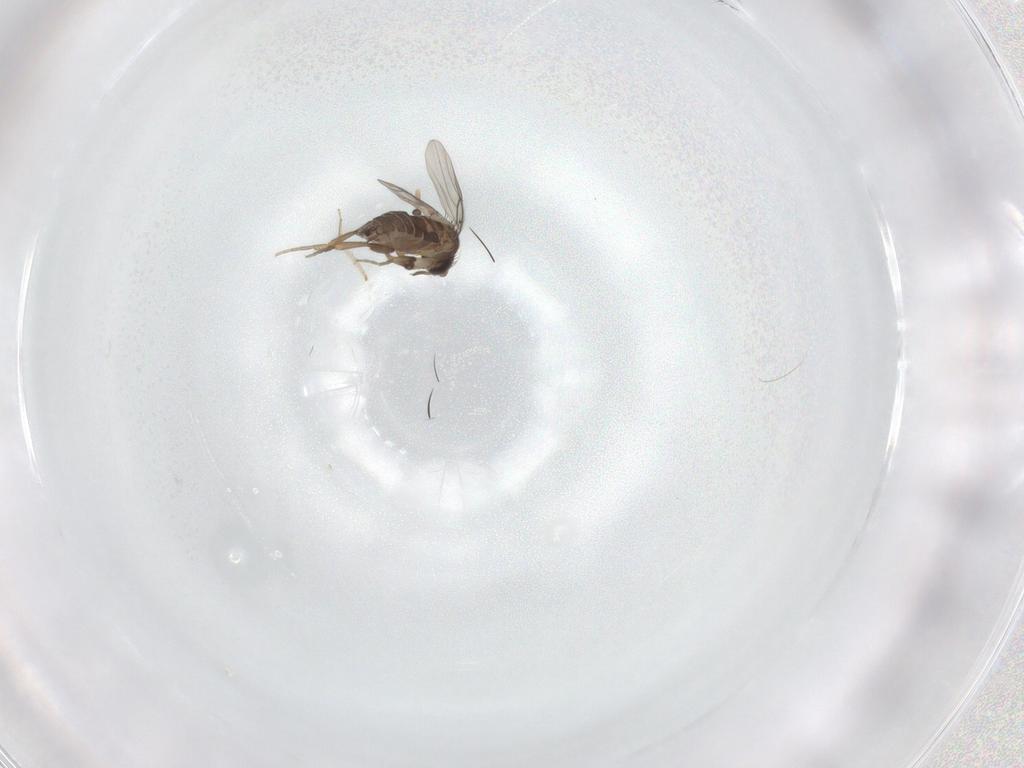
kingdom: Animalia
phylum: Arthropoda
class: Insecta
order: Diptera
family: Phoridae
